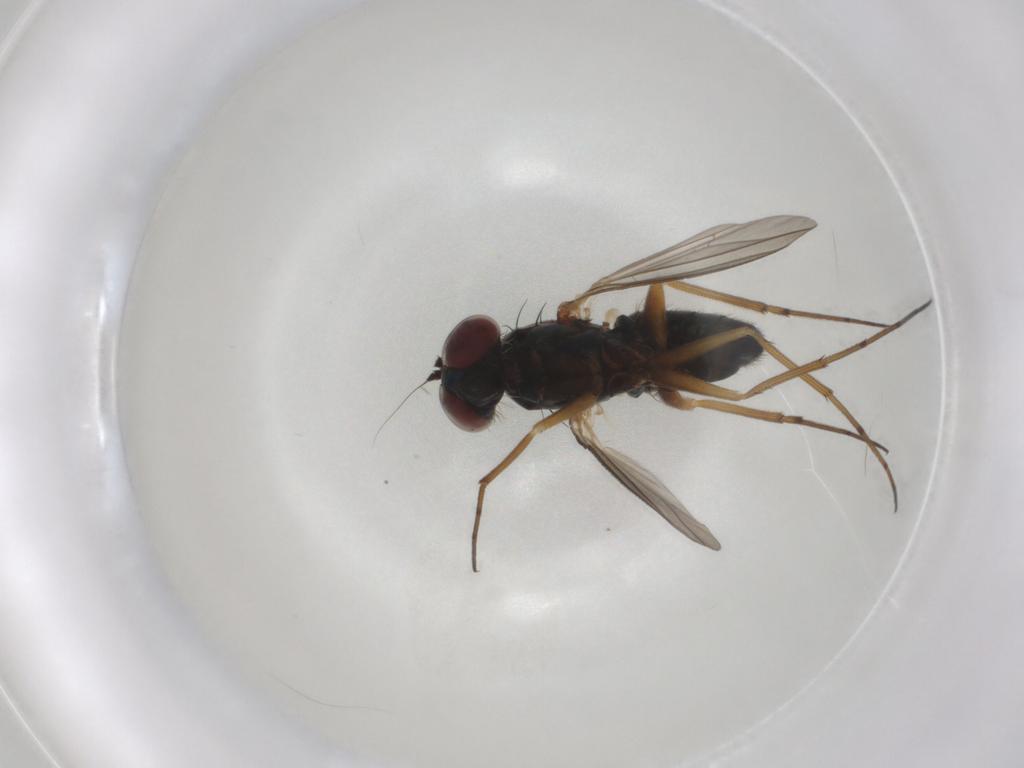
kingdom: Animalia
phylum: Arthropoda
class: Insecta
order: Diptera
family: Dolichopodidae
